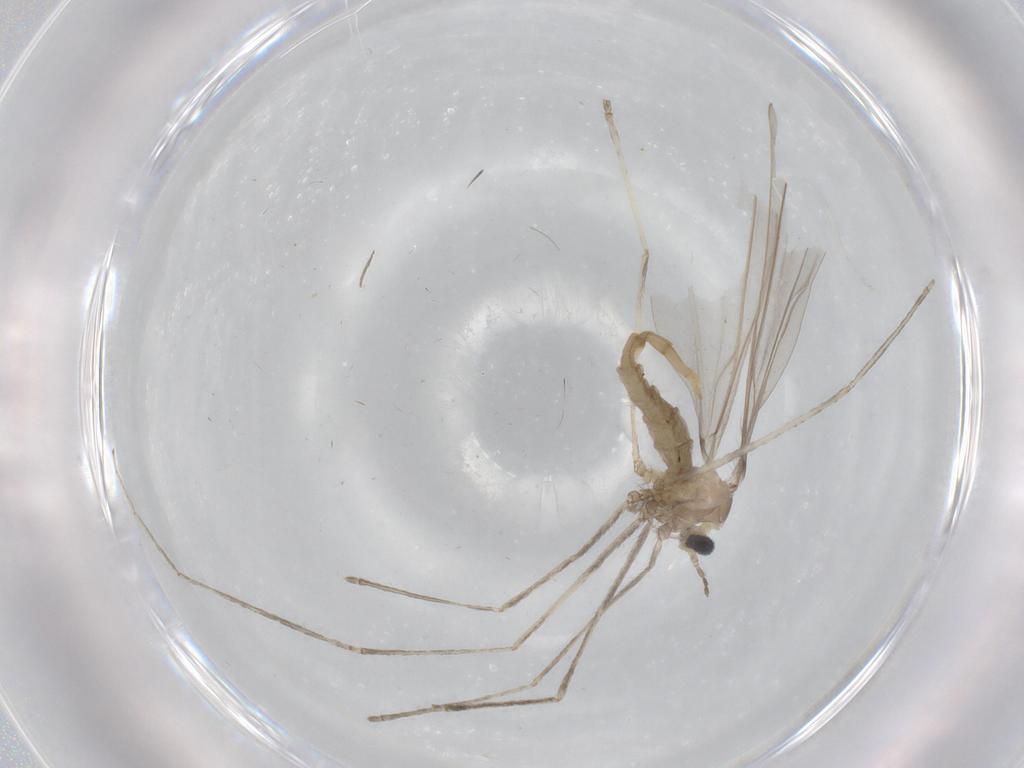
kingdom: Animalia
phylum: Arthropoda
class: Insecta
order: Diptera
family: Cecidomyiidae
